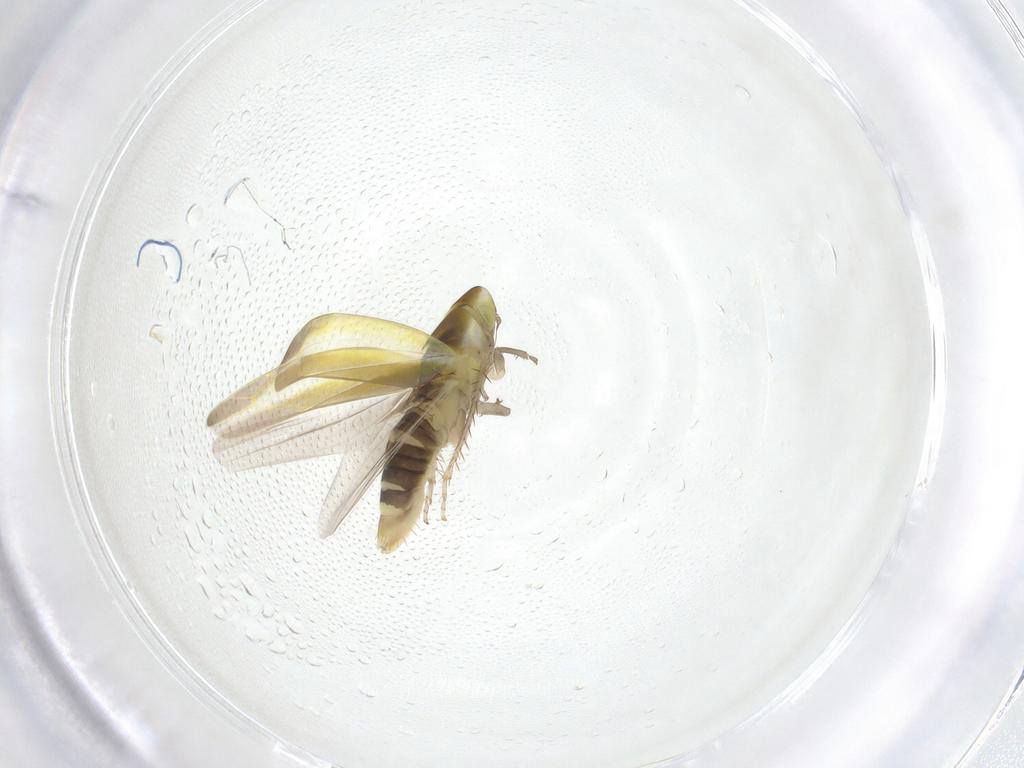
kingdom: Animalia
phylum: Arthropoda
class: Insecta
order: Hemiptera
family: Cicadellidae
